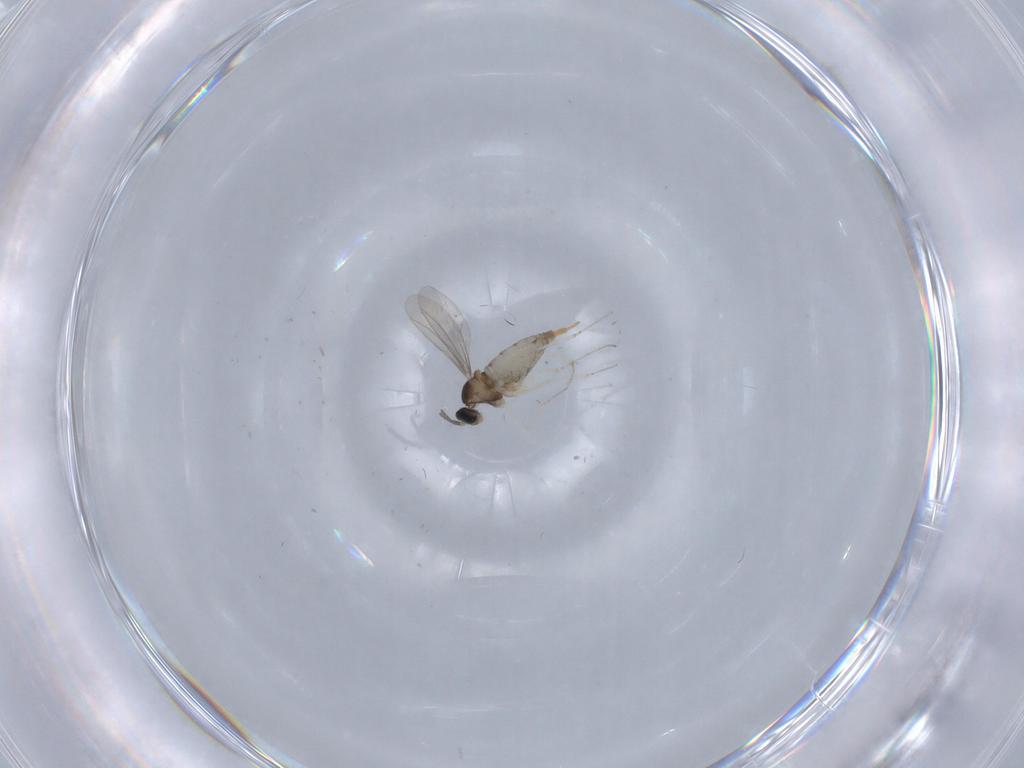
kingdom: Animalia
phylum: Arthropoda
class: Insecta
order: Diptera
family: Cecidomyiidae
